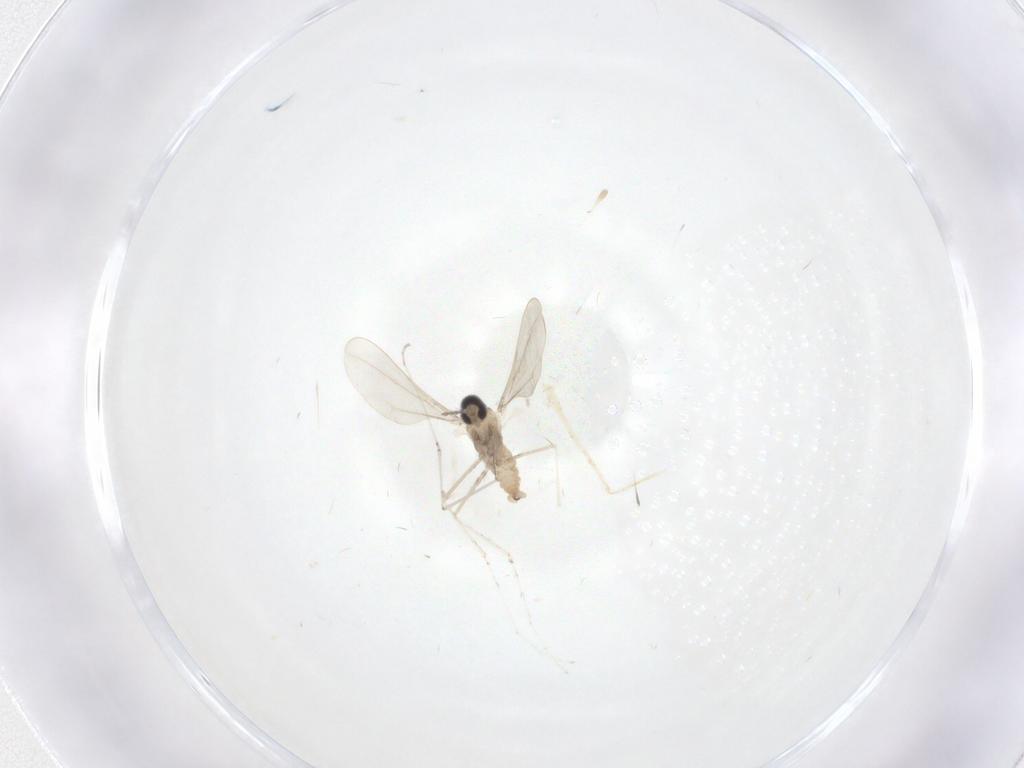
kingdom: Animalia
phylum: Arthropoda
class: Insecta
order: Diptera
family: Cecidomyiidae
